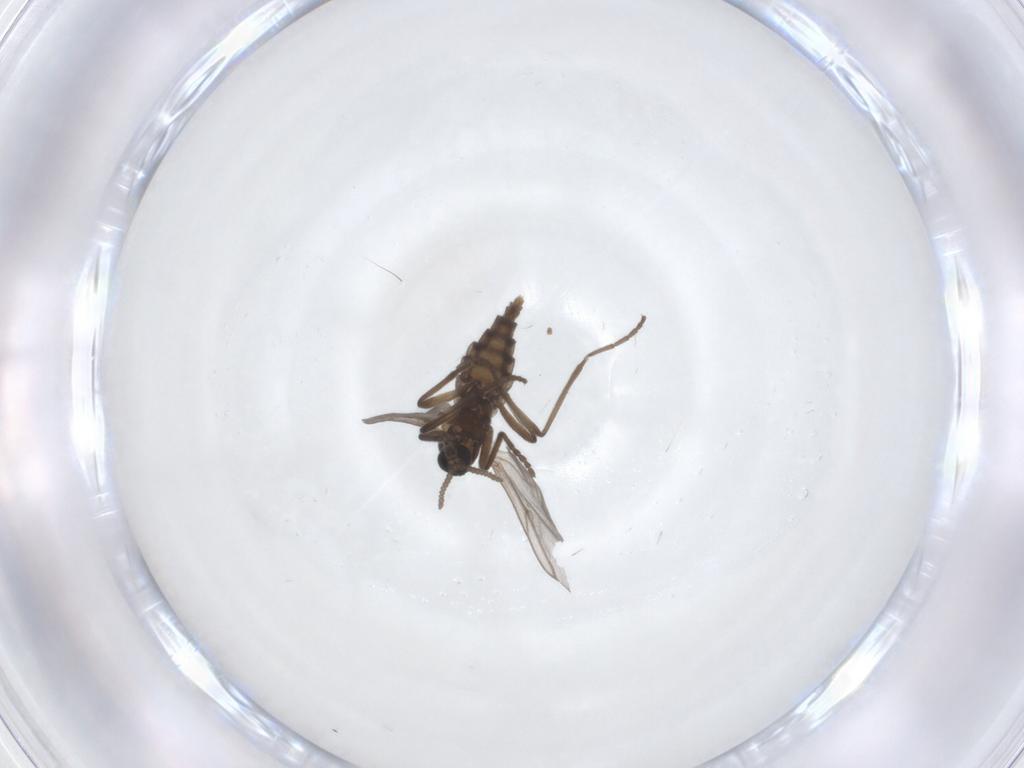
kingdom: Animalia
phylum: Arthropoda
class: Insecta
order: Diptera
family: Cecidomyiidae
